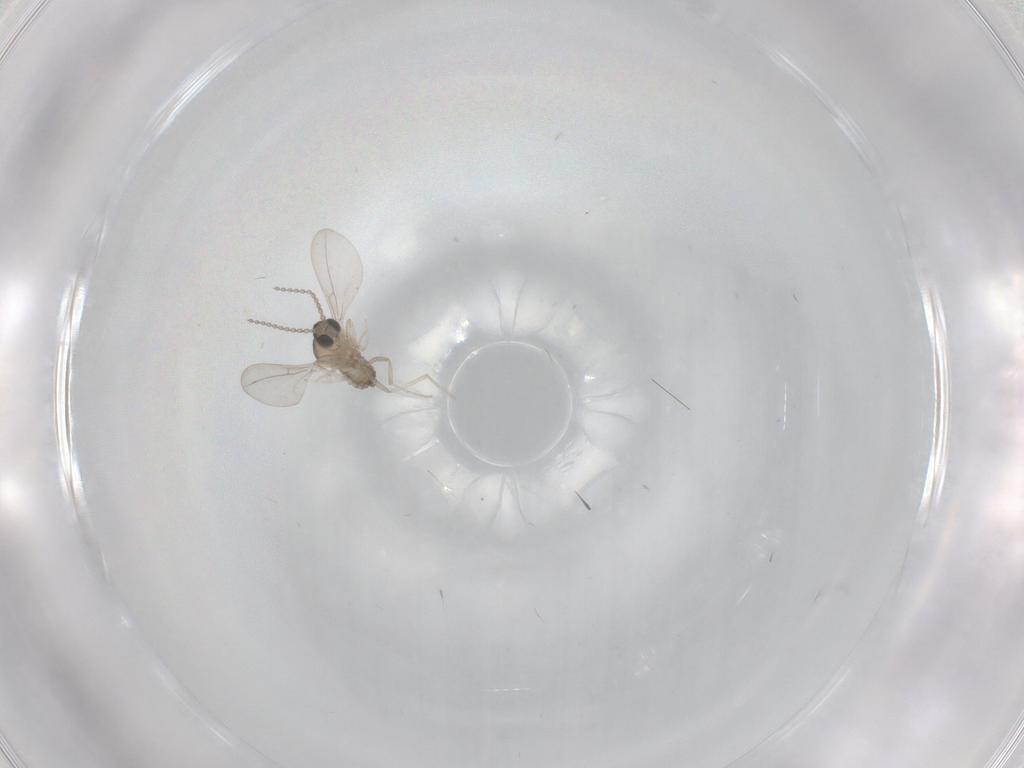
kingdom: Animalia
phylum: Arthropoda
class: Insecta
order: Diptera
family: Cecidomyiidae
